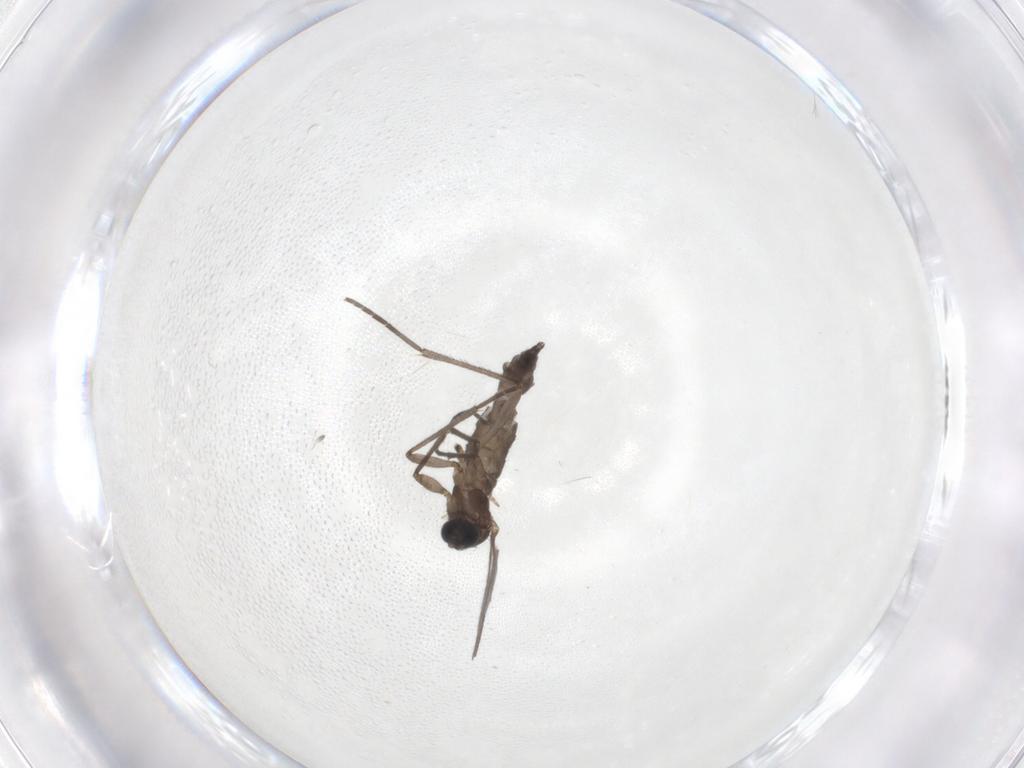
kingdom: Animalia
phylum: Arthropoda
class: Insecta
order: Diptera
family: Sciaridae
